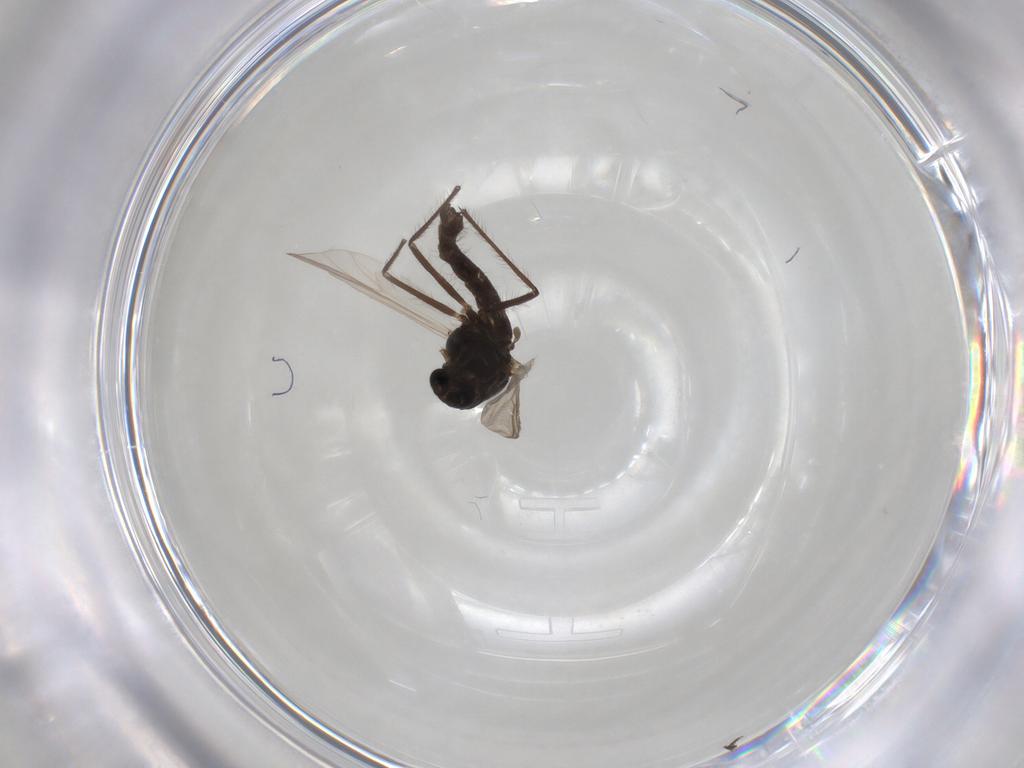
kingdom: Animalia
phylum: Arthropoda
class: Insecta
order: Diptera
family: Chironomidae
